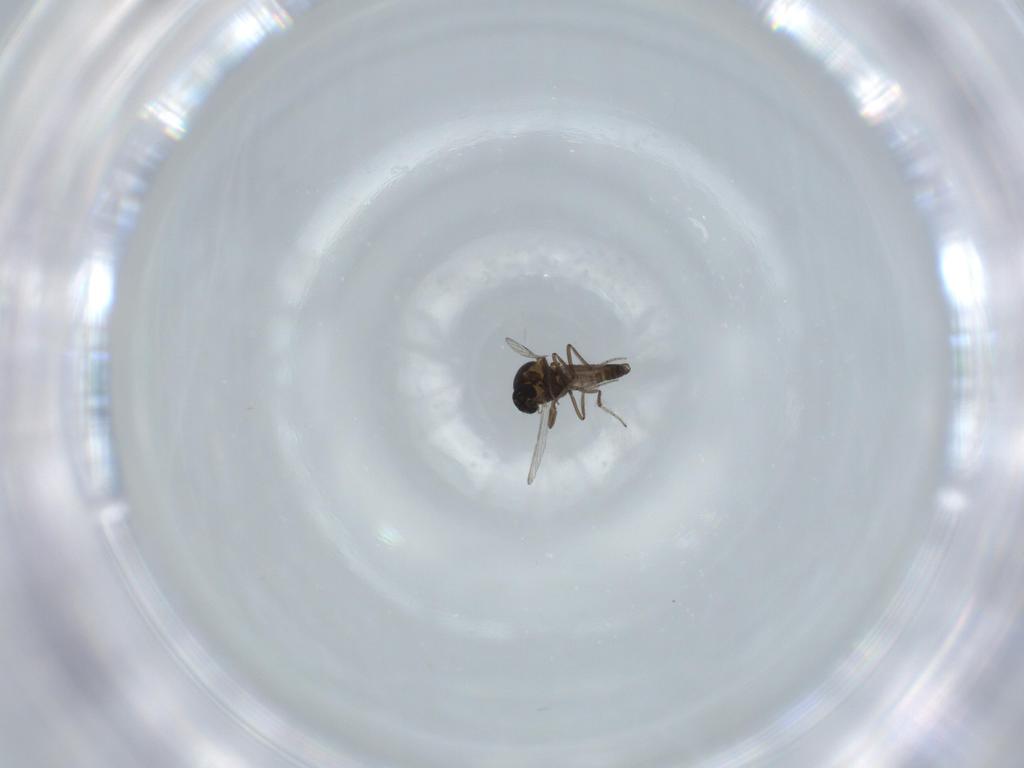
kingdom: Animalia
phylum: Arthropoda
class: Insecta
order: Diptera
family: Ceratopogonidae
